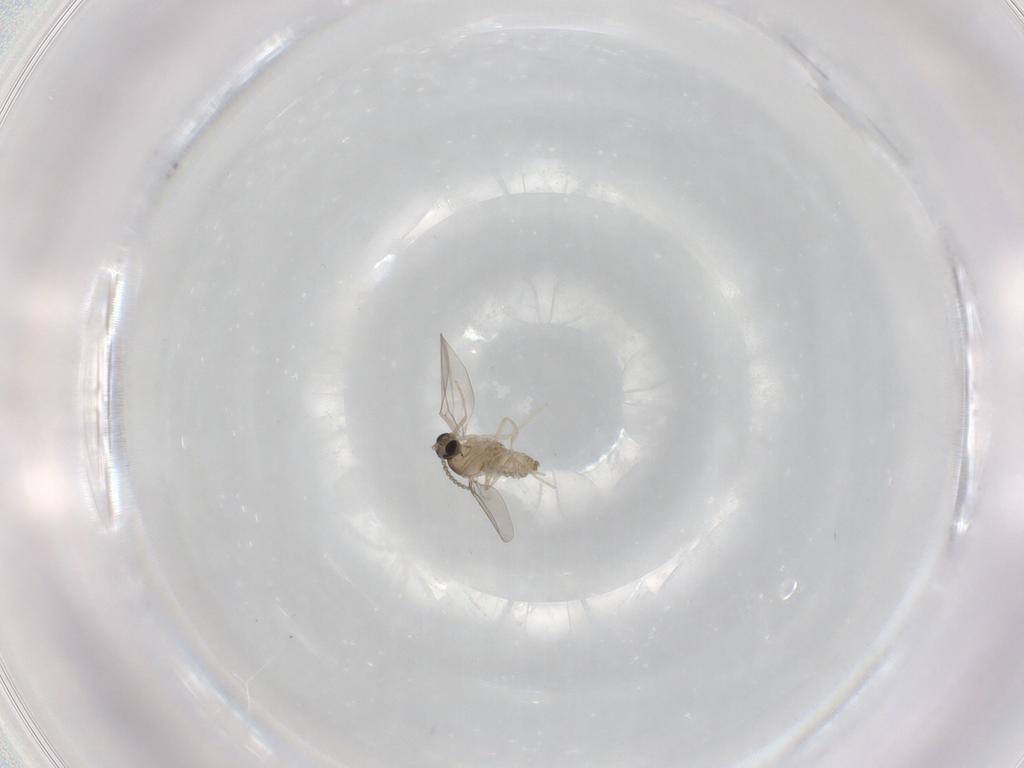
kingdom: Animalia
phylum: Arthropoda
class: Insecta
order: Diptera
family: Cecidomyiidae
